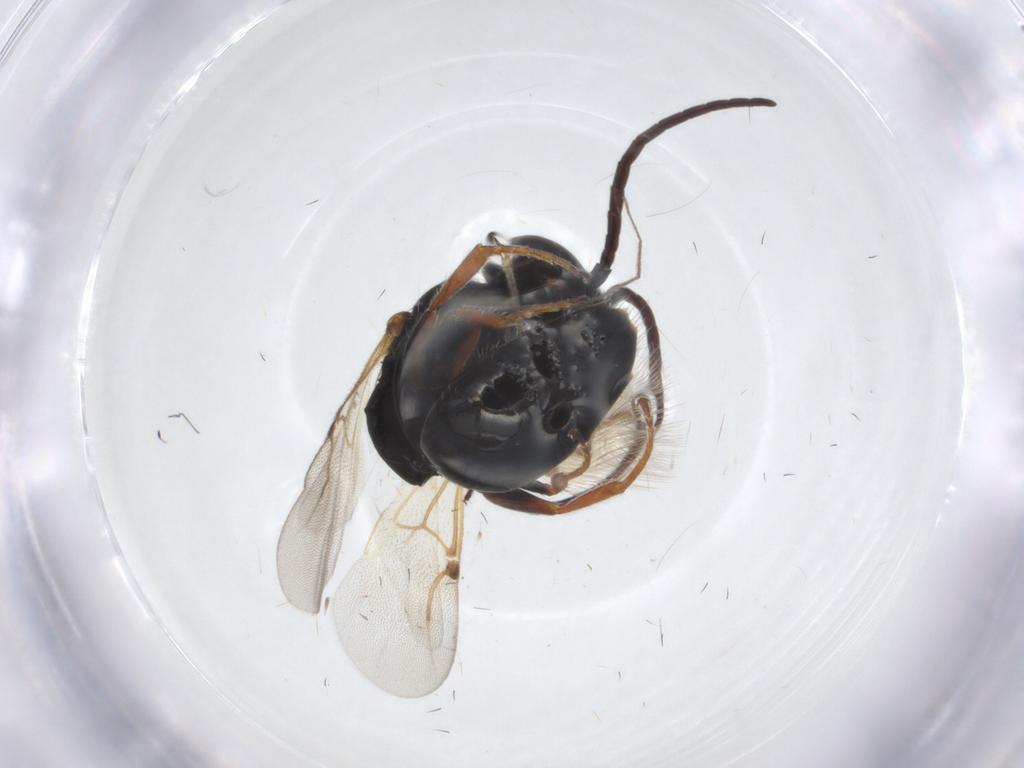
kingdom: Animalia
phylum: Arthropoda
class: Insecta
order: Hymenoptera
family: Bethylidae
